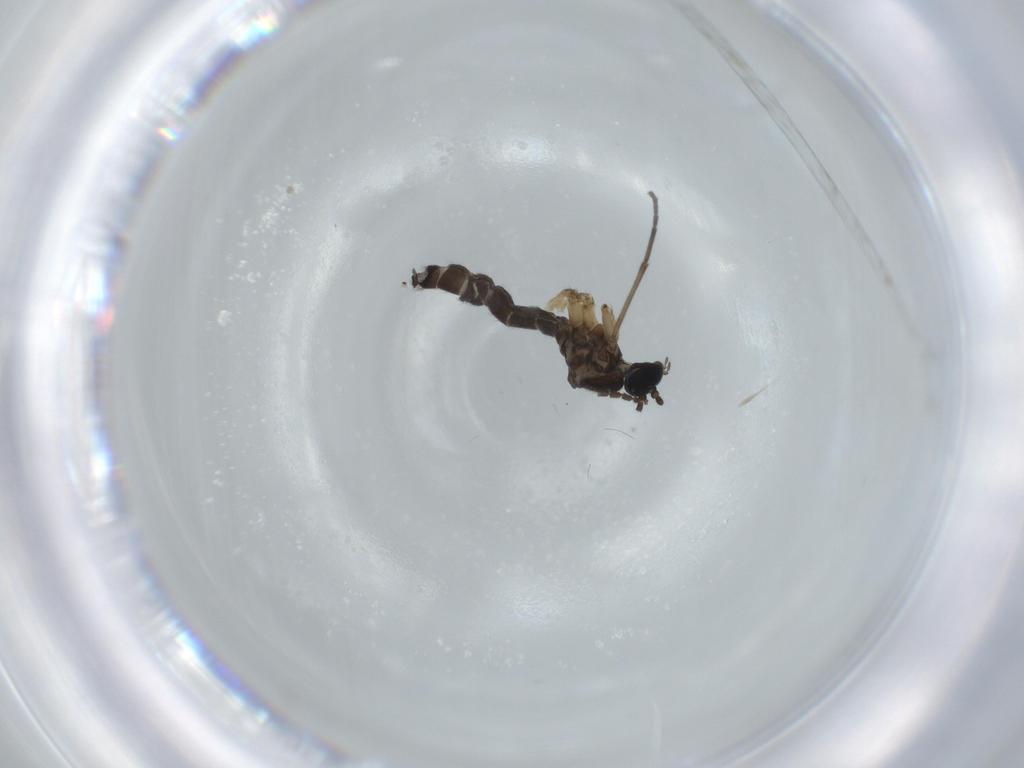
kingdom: Animalia
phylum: Arthropoda
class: Insecta
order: Diptera
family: Sciaridae
